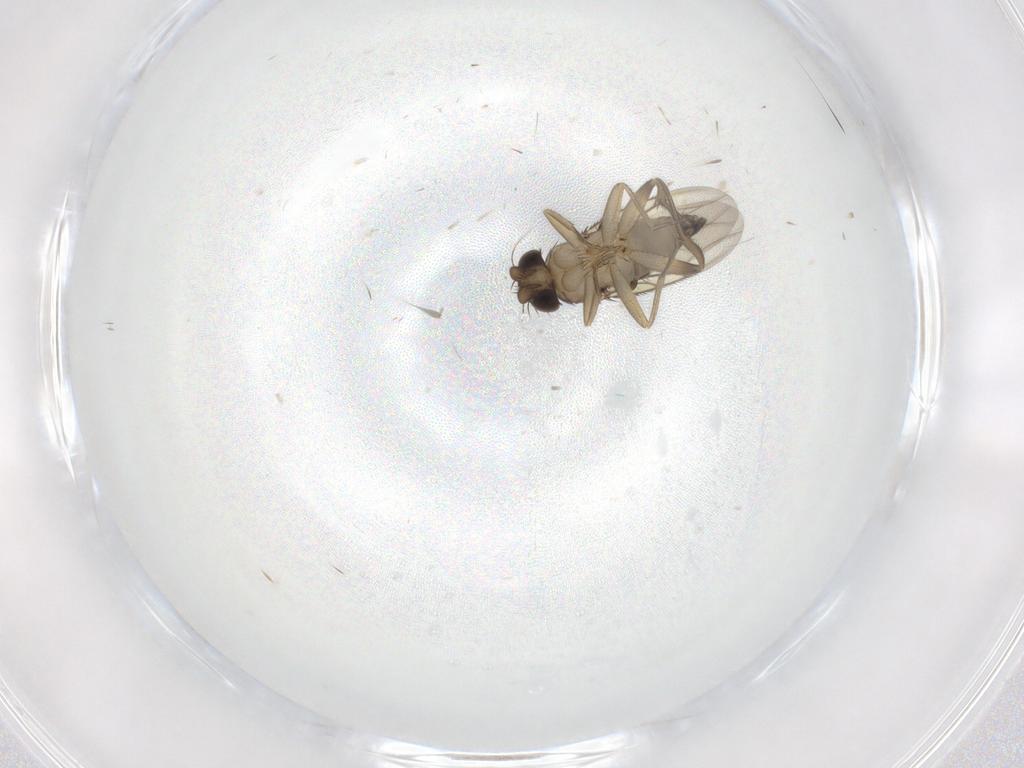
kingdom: Animalia
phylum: Arthropoda
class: Insecta
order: Diptera
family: Phoridae
